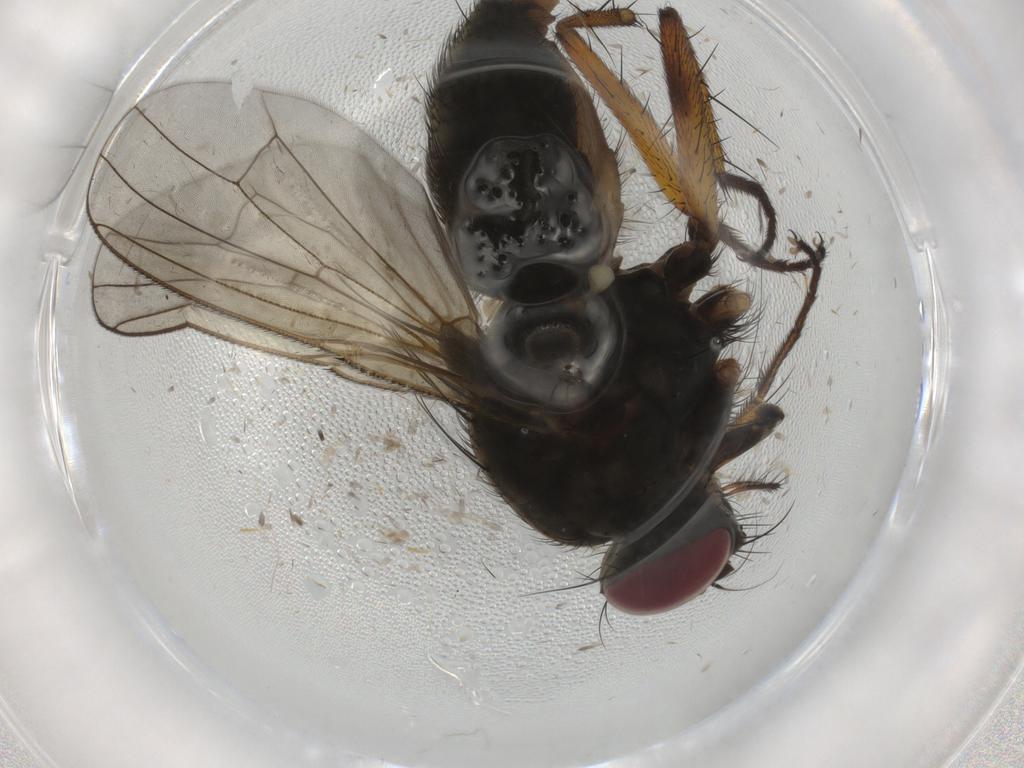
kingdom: Animalia
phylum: Arthropoda
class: Insecta
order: Diptera
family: Muscidae
